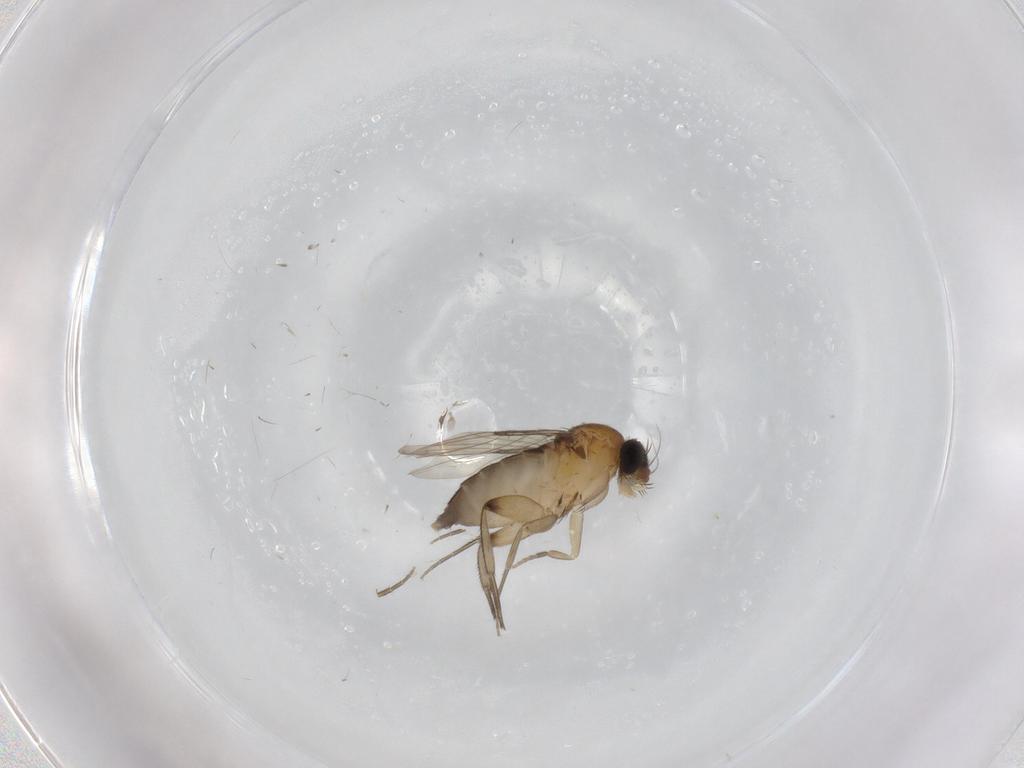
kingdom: Animalia
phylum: Arthropoda
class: Insecta
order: Diptera
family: Phoridae
